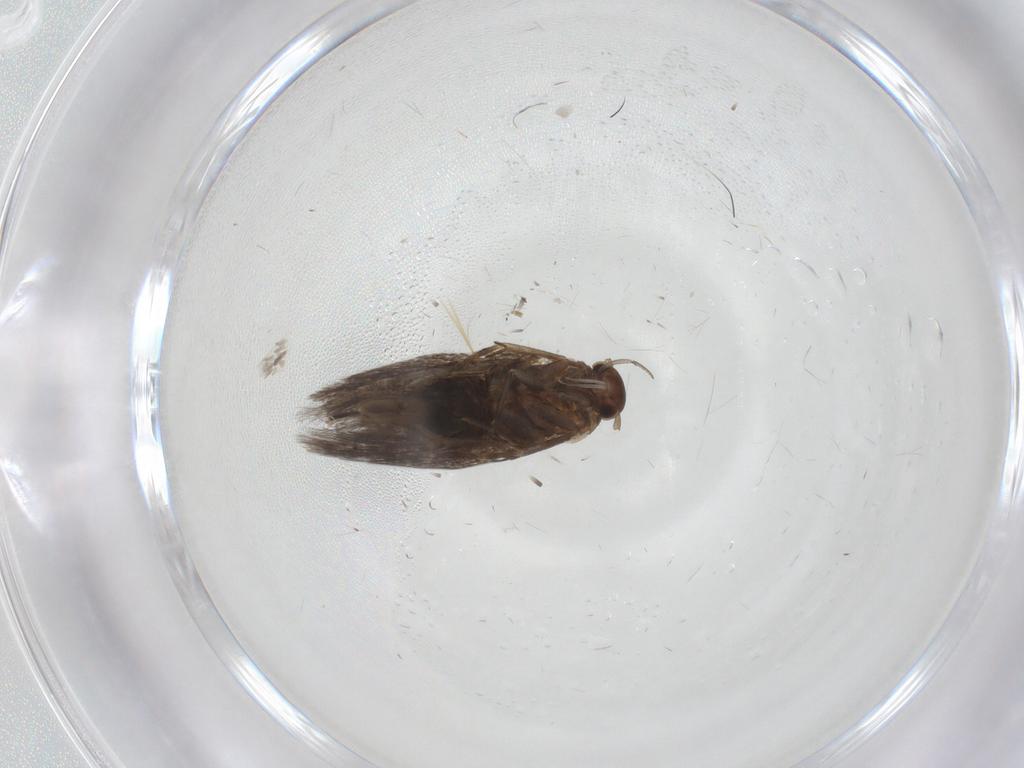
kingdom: Animalia
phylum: Arthropoda
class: Insecta
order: Lepidoptera
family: Elachistidae
